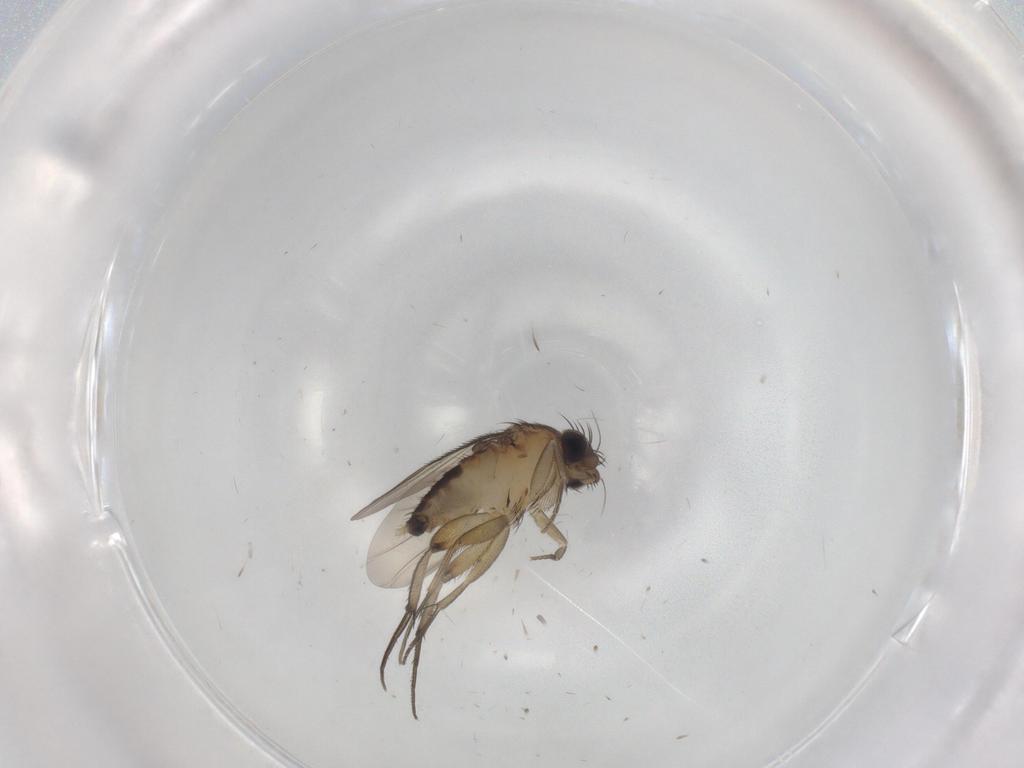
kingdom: Animalia
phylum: Arthropoda
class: Insecta
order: Diptera
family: Phoridae
